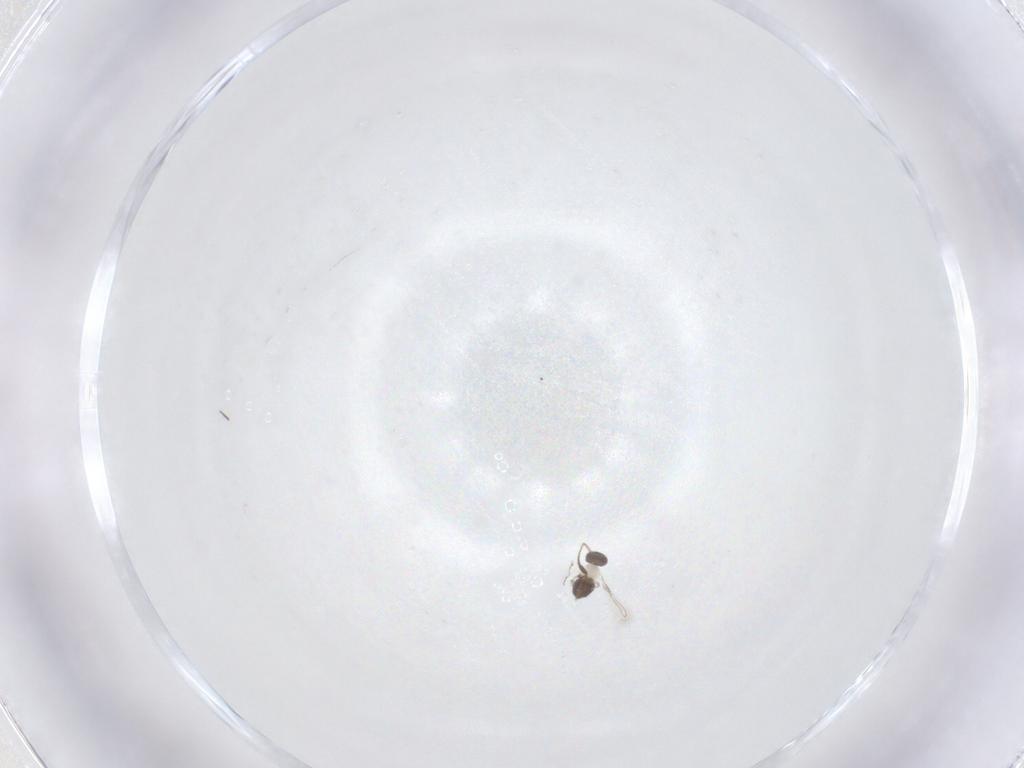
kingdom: Animalia
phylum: Arthropoda
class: Insecta
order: Hymenoptera
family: Mymaridae
